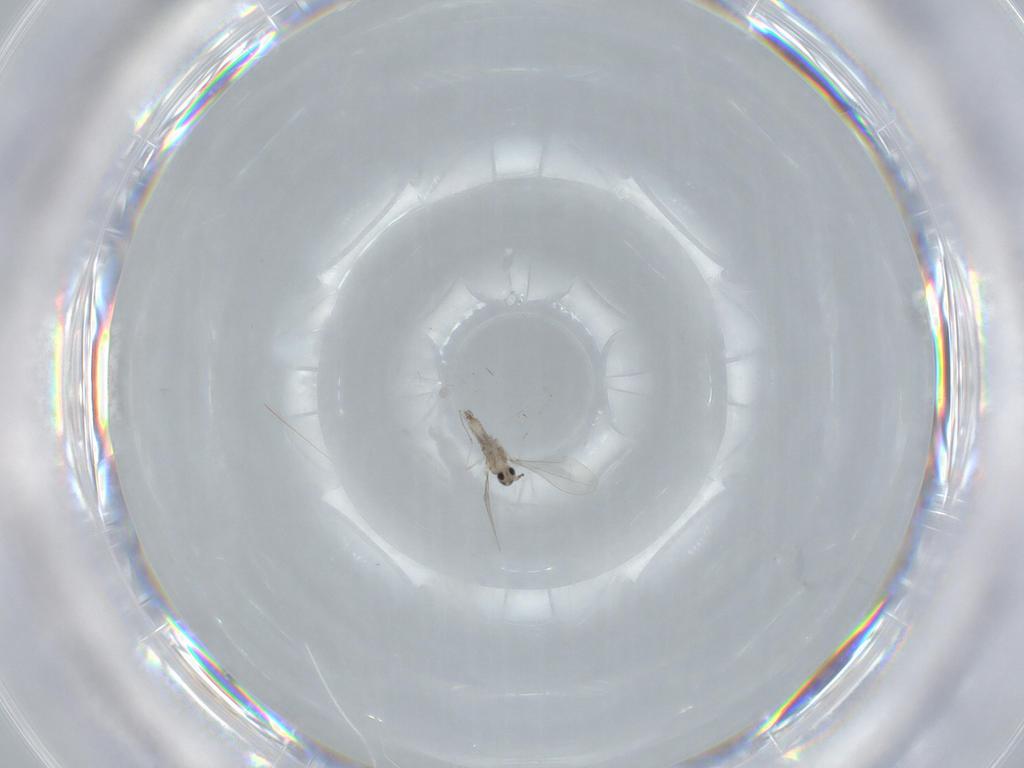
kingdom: Animalia
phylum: Arthropoda
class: Insecta
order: Diptera
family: Cecidomyiidae
